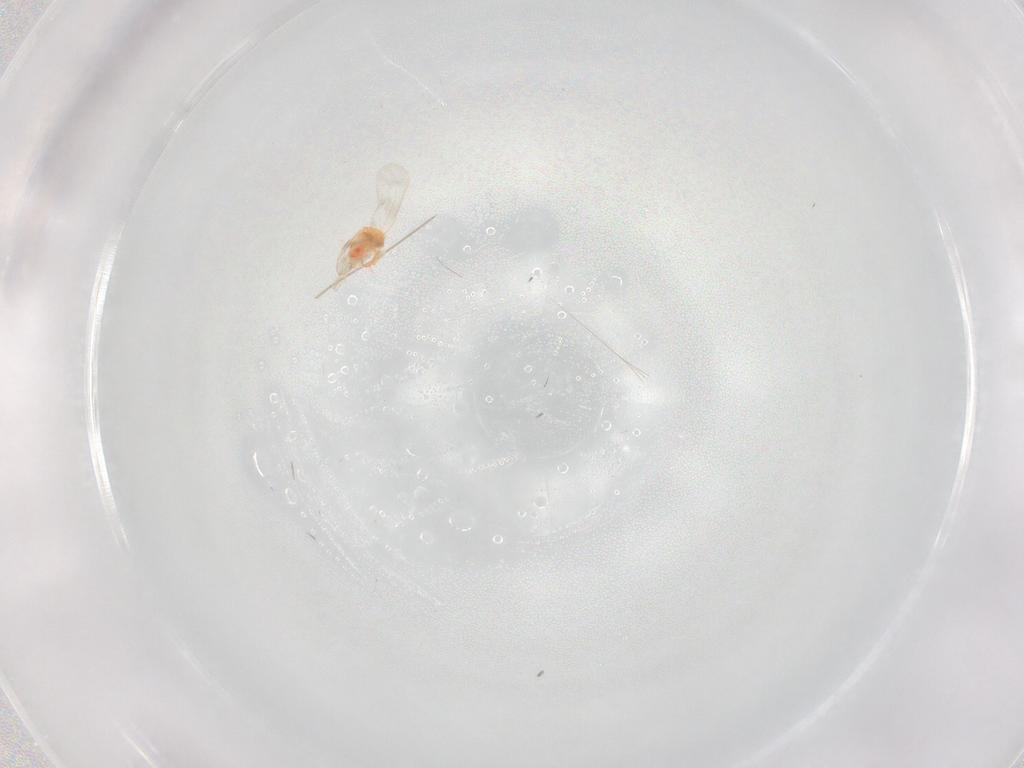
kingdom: Animalia
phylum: Arthropoda
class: Insecta
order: Hemiptera
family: Aleyrodidae
